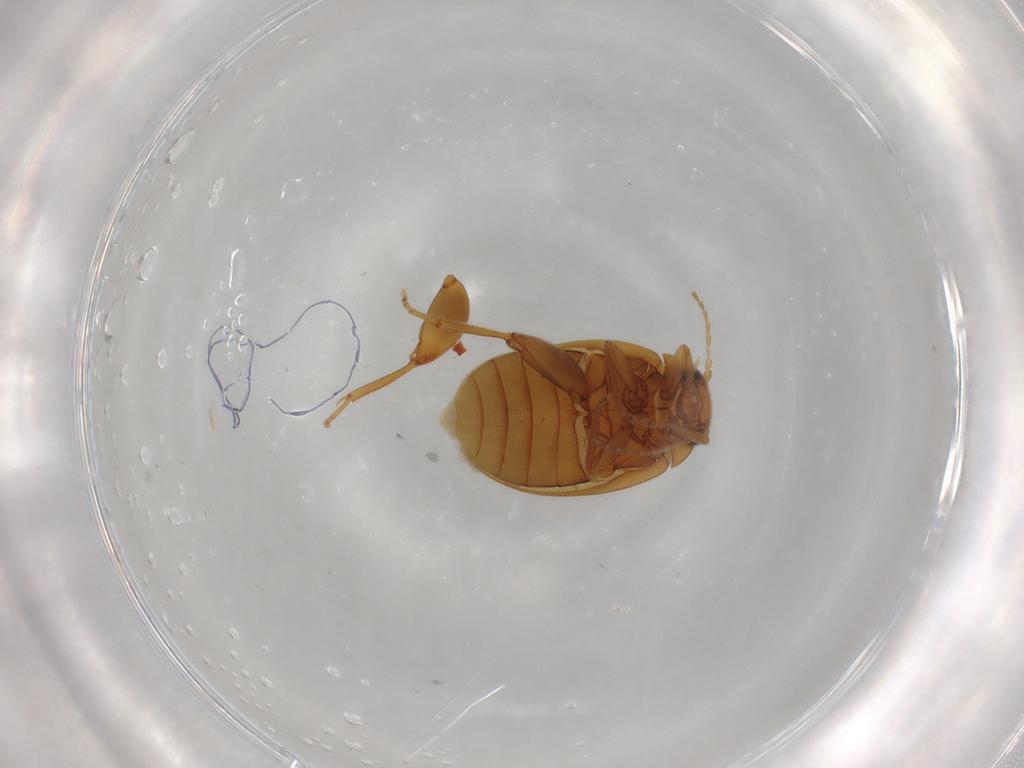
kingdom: Animalia
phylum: Arthropoda
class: Insecta
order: Coleoptera
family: Scirtidae
